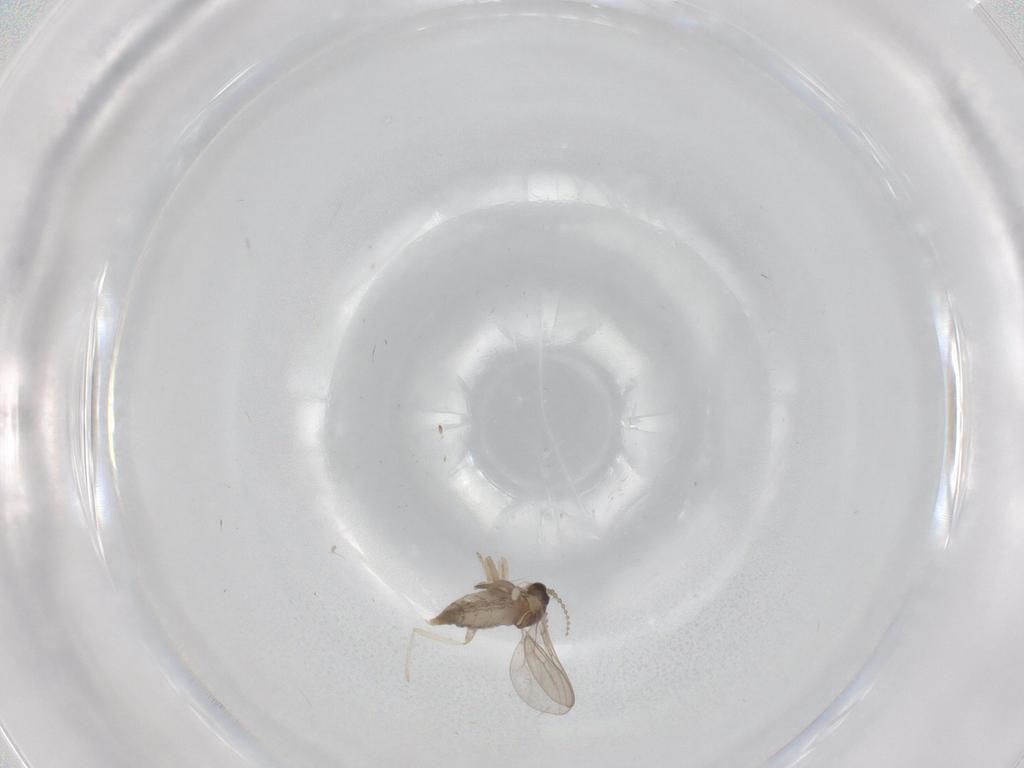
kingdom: Animalia
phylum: Arthropoda
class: Insecta
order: Diptera
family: Cecidomyiidae
